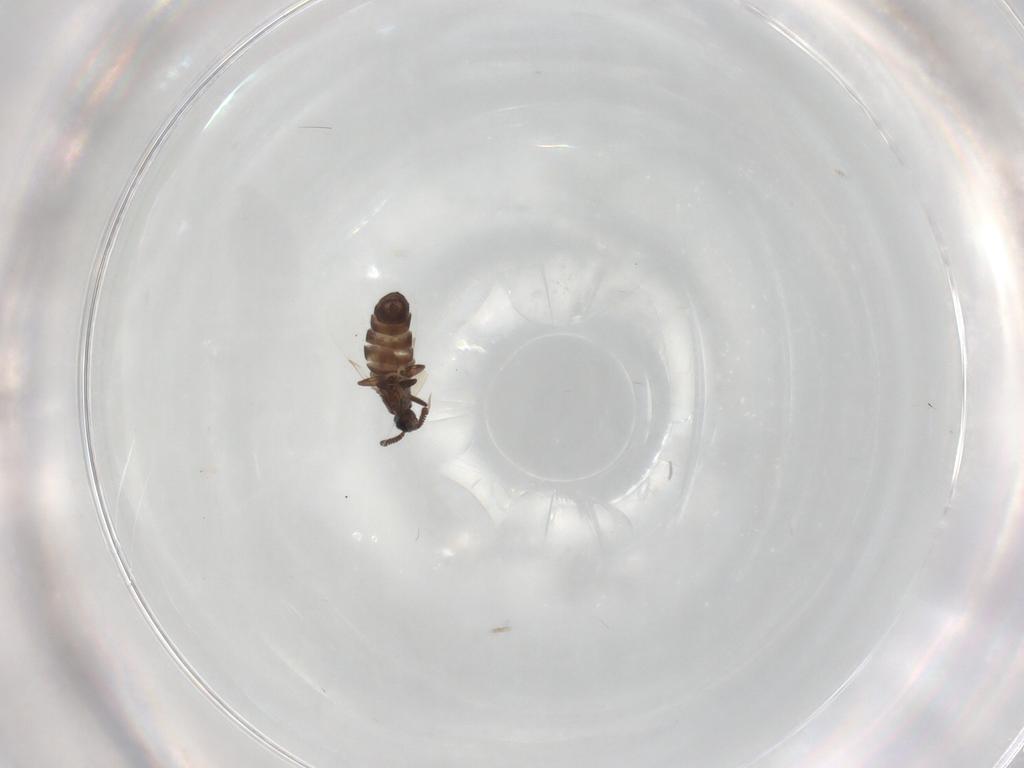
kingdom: Animalia
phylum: Arthropoda
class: Insecta
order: Diptera
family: Scatopsidae
